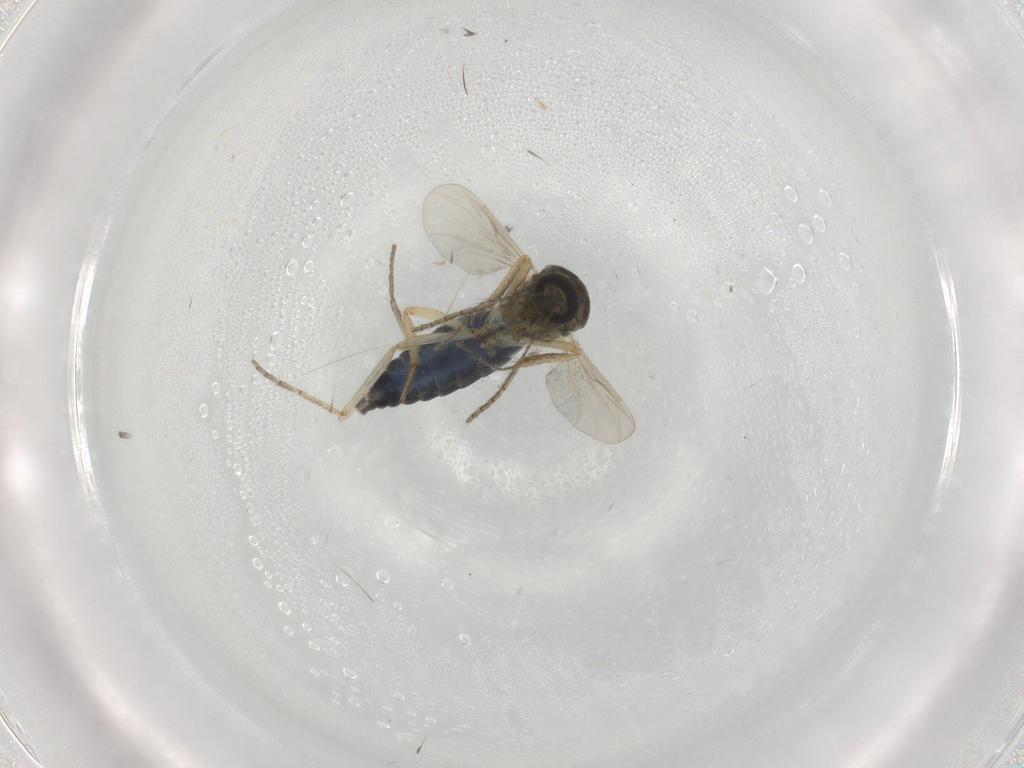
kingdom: Animalia
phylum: Arthropoda
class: Insecta
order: Diptera
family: Ceratopogonidae
